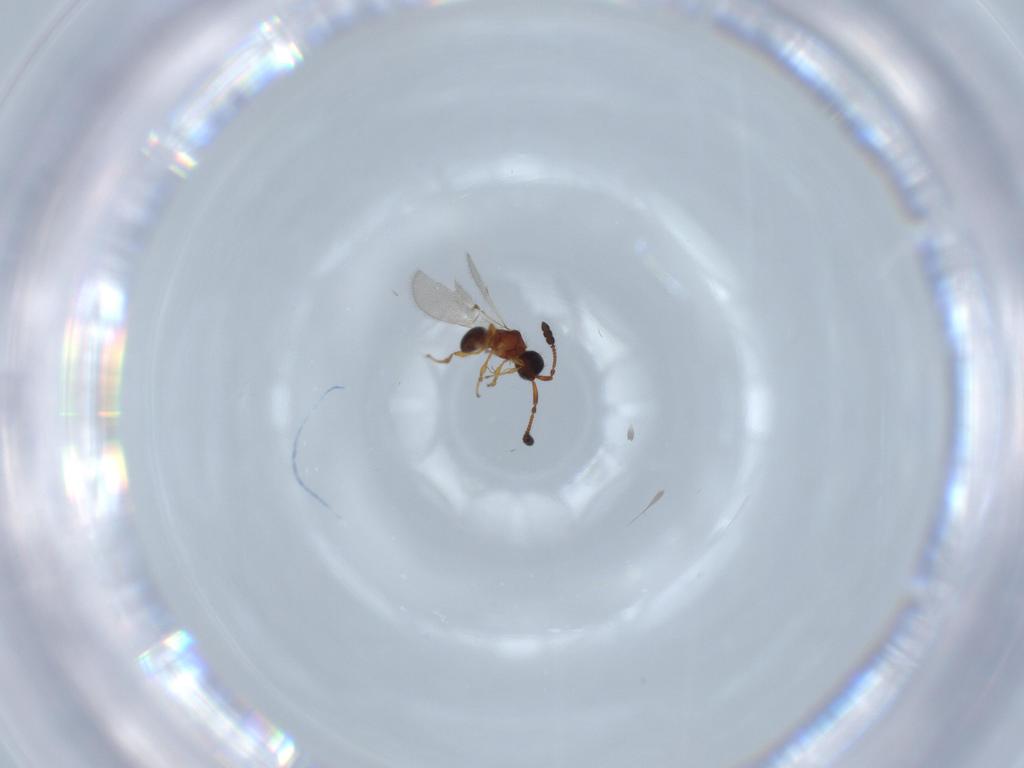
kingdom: Animalia
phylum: Arthropoda
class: Insecta
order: Hymenoptera
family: Diapriidae
